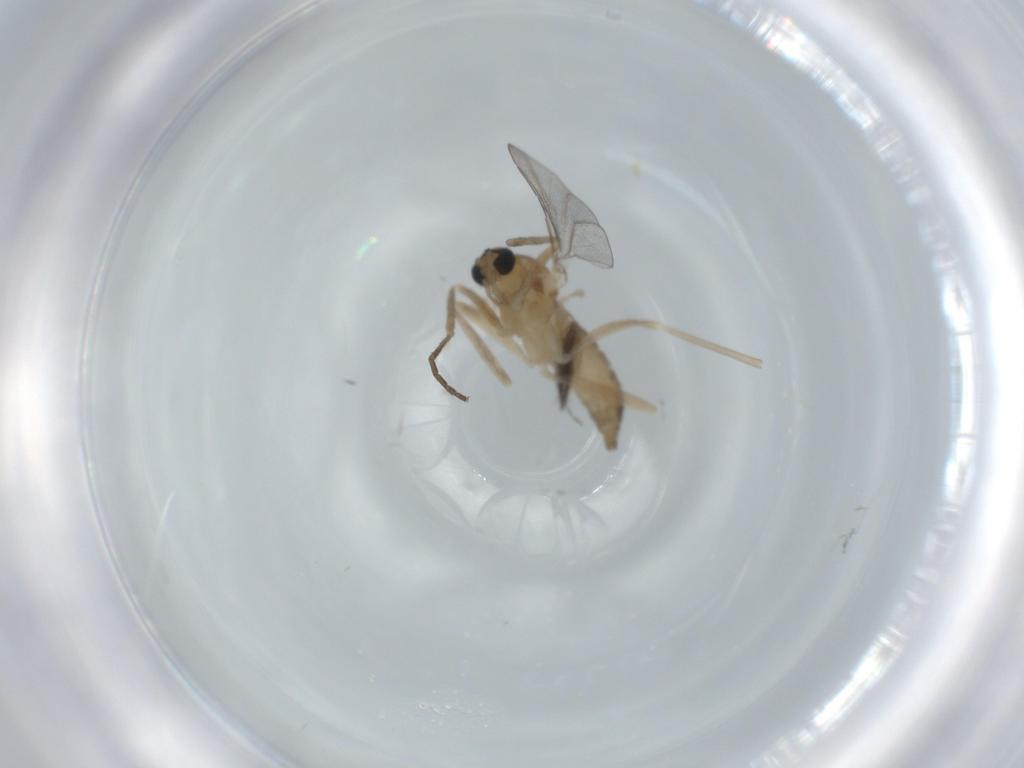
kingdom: Animalia
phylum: Arthropoda
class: Insecta
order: Diptera
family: Cecidomyiidae
